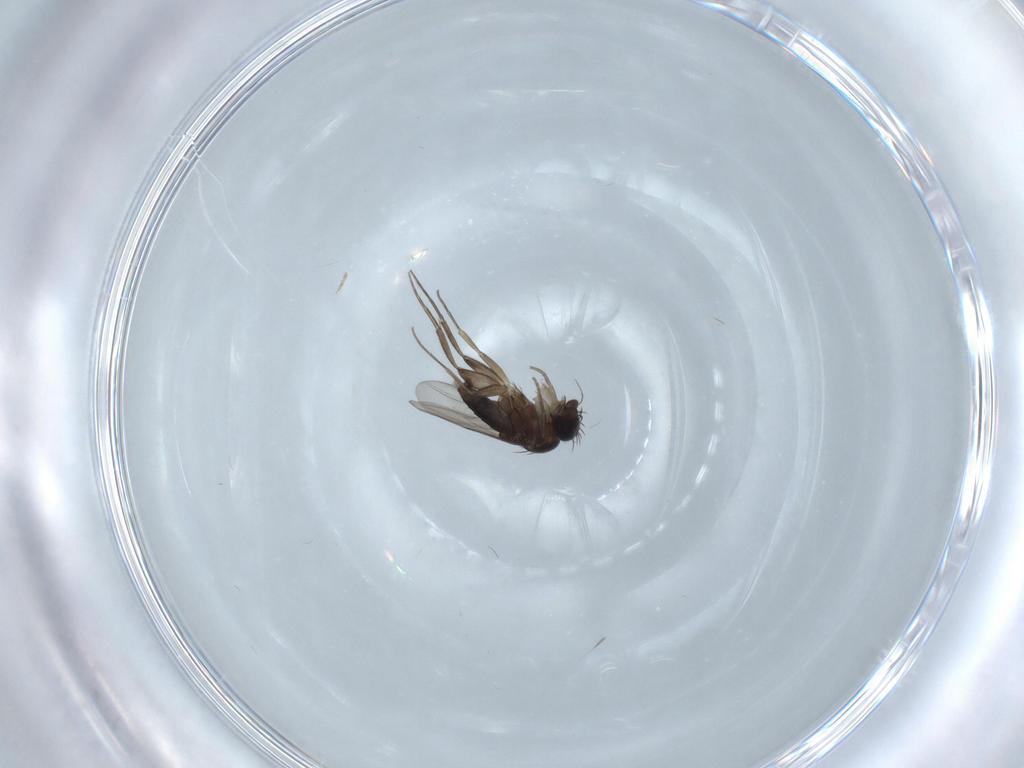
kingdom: Animalia
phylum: Arthropoda
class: Insecta
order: Diptera
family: Phoridae
